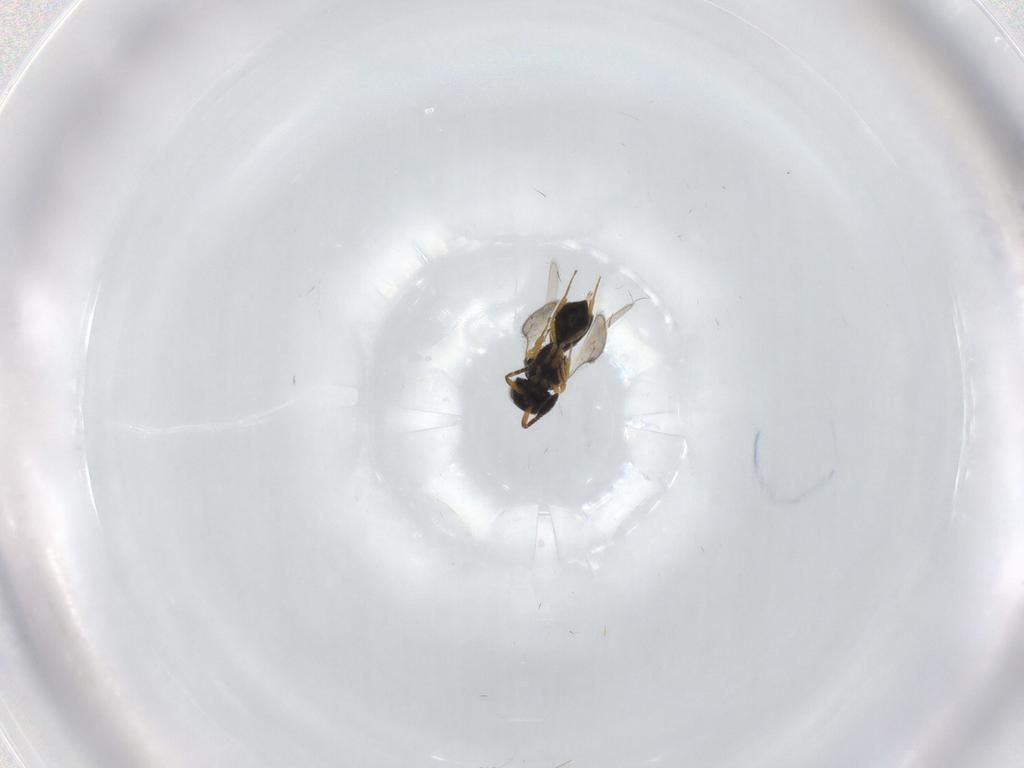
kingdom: Animalia
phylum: Arthropoda
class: Insecta
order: Hymenoptera
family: Scelionidae
